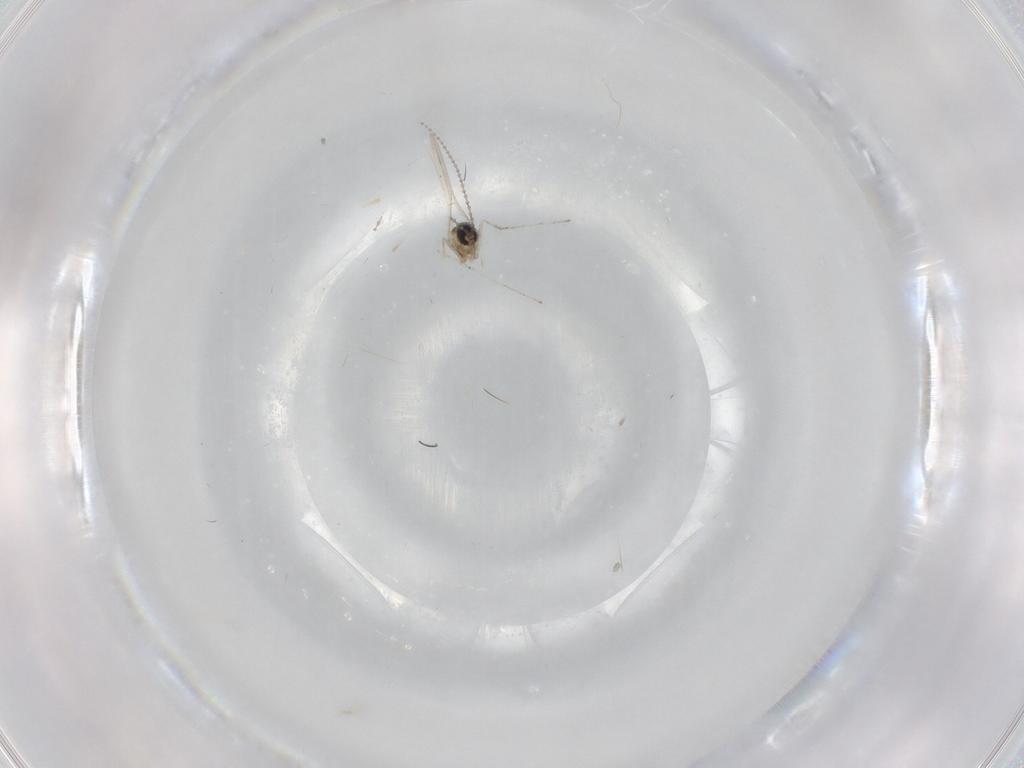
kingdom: Animalia
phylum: Arthropoda
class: Insecta
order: Diptera
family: Cecidomyiidae
